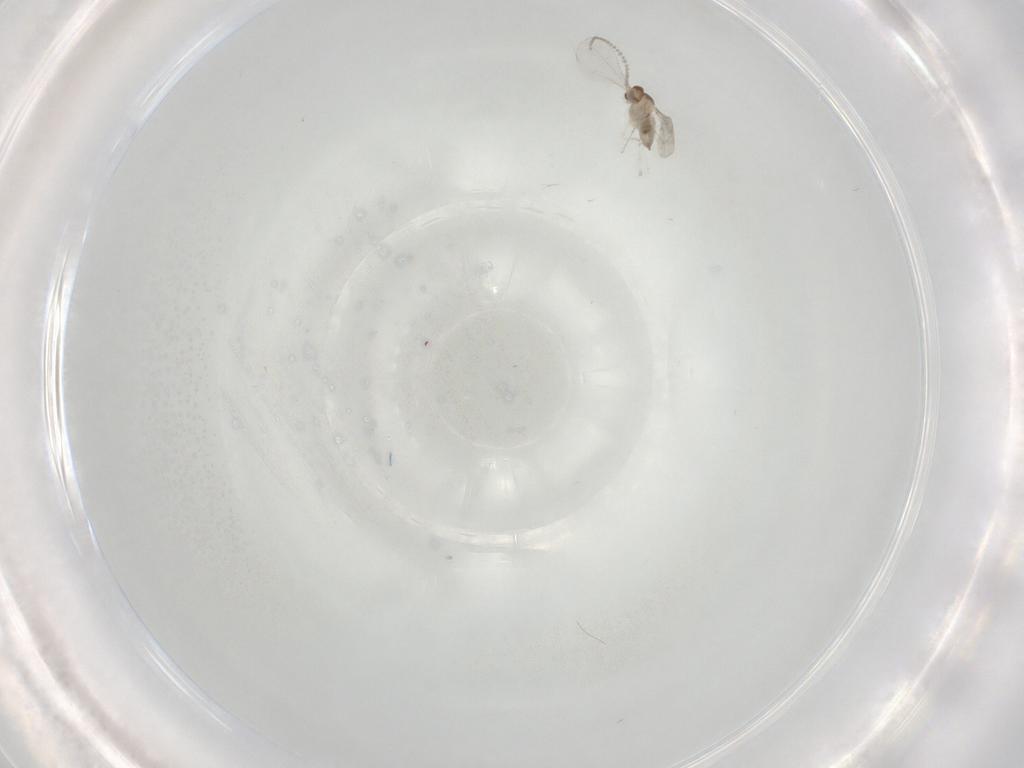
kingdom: Animalia
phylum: Arthropoda
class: Insecta
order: Diptera
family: Cecidomyiidae
